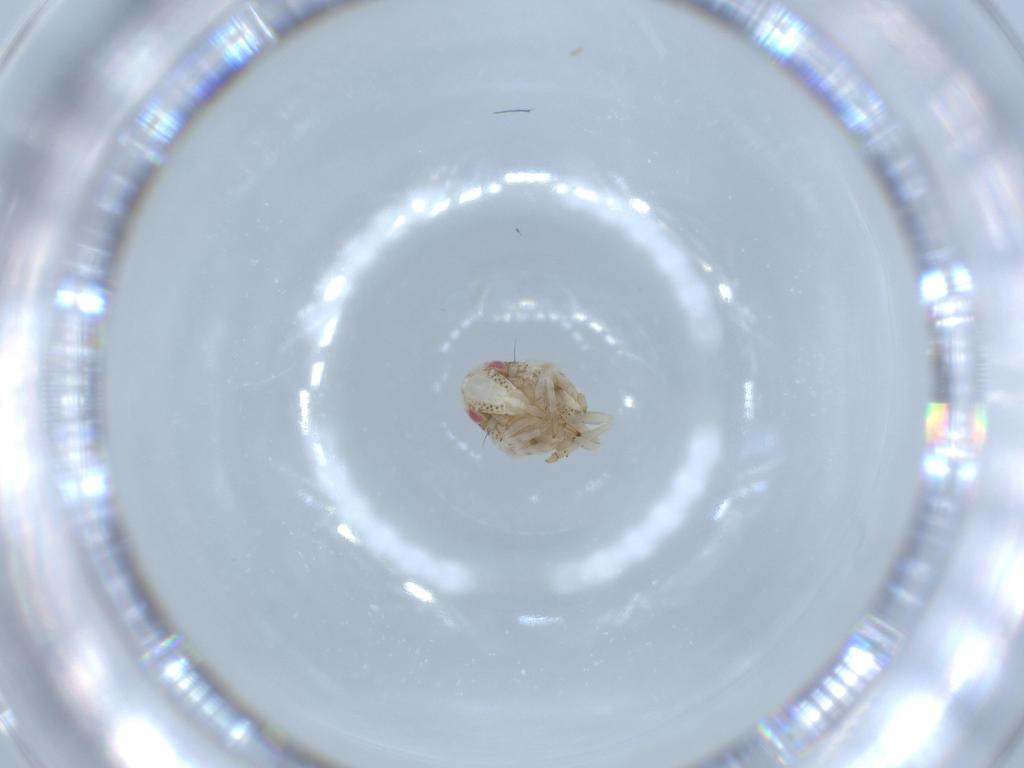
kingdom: Animalia
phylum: Arthropoda
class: Insecta
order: Hemiptera
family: Acanaloniidae
